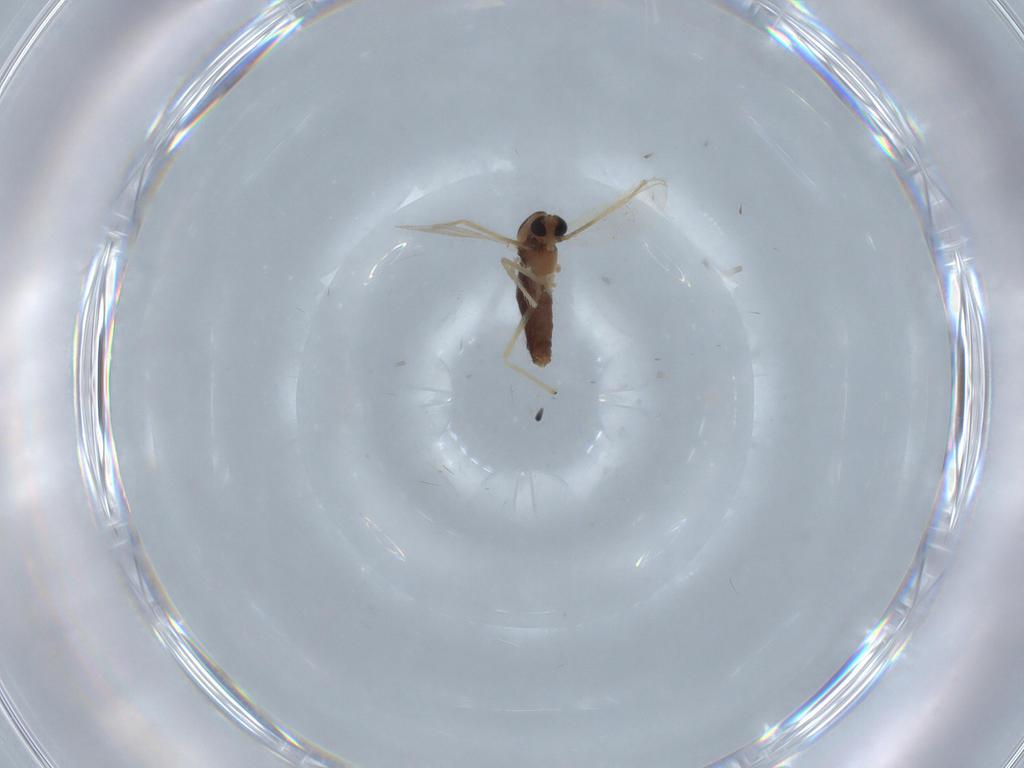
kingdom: Animalia
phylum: Arthropoda
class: Insecta
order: Diptera
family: Chironomidae
